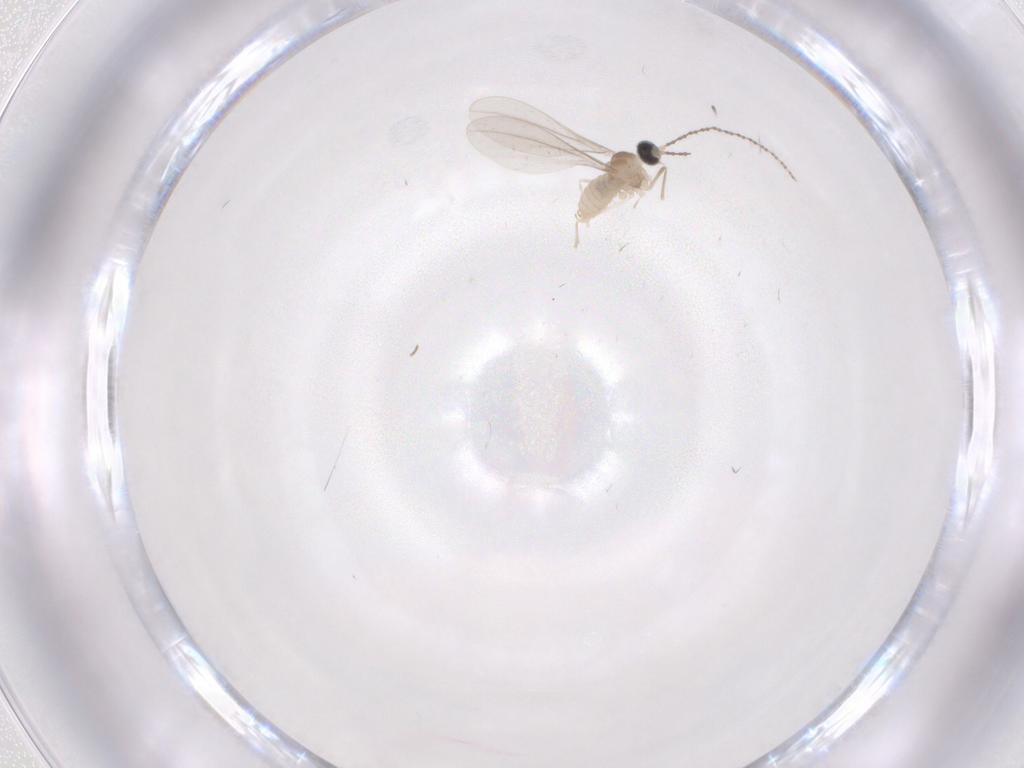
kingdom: Animalia
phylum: Arthropoda
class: Insecta
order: Diptera
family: Cecidomyiidae
